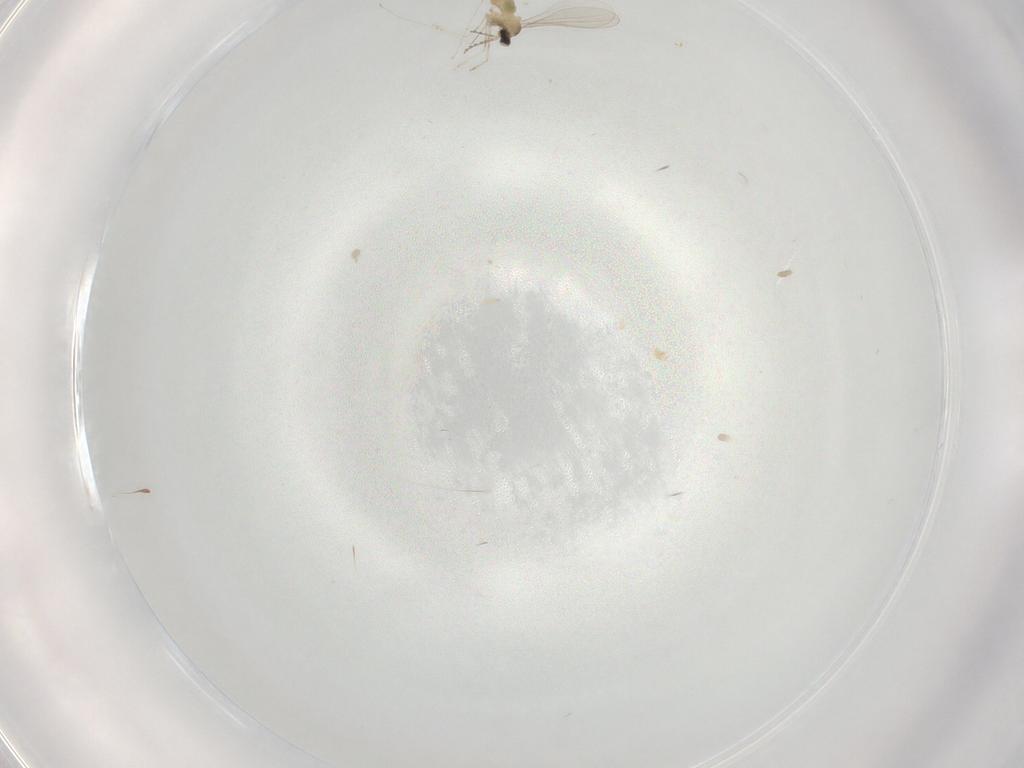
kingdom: Animalia
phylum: Arthropoda
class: Insecta
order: Diptera
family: Cecidomyiidae
